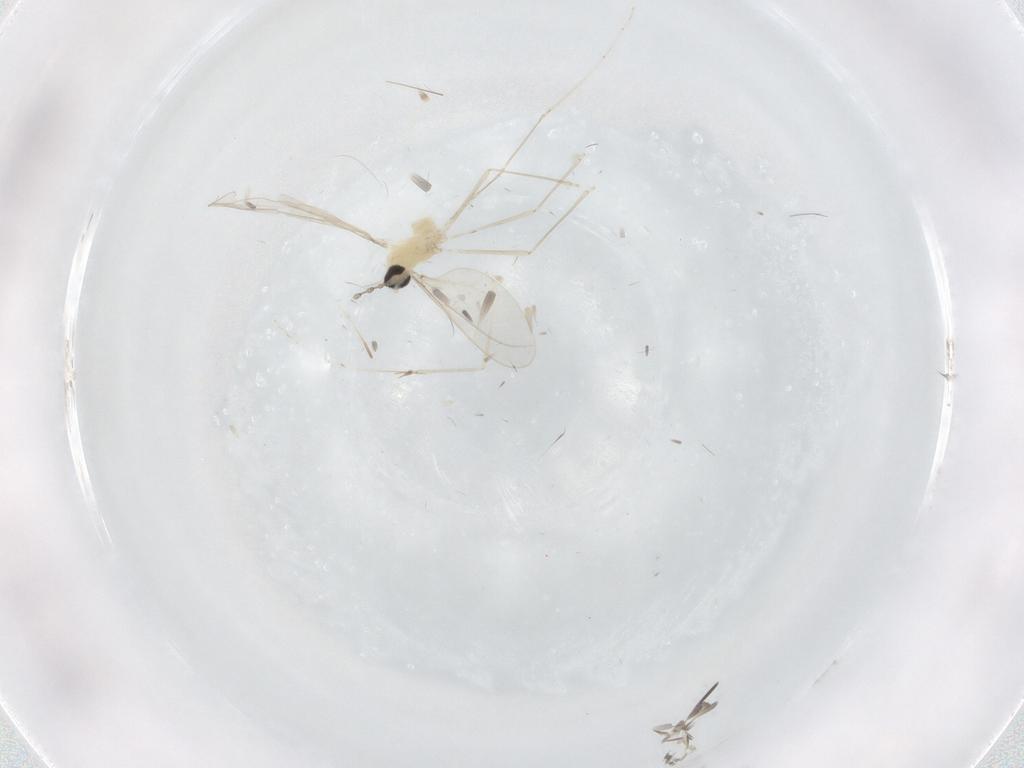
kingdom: Animalia
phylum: Arthropoda
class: Insecta
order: Diptera
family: Cecidomyiidae
